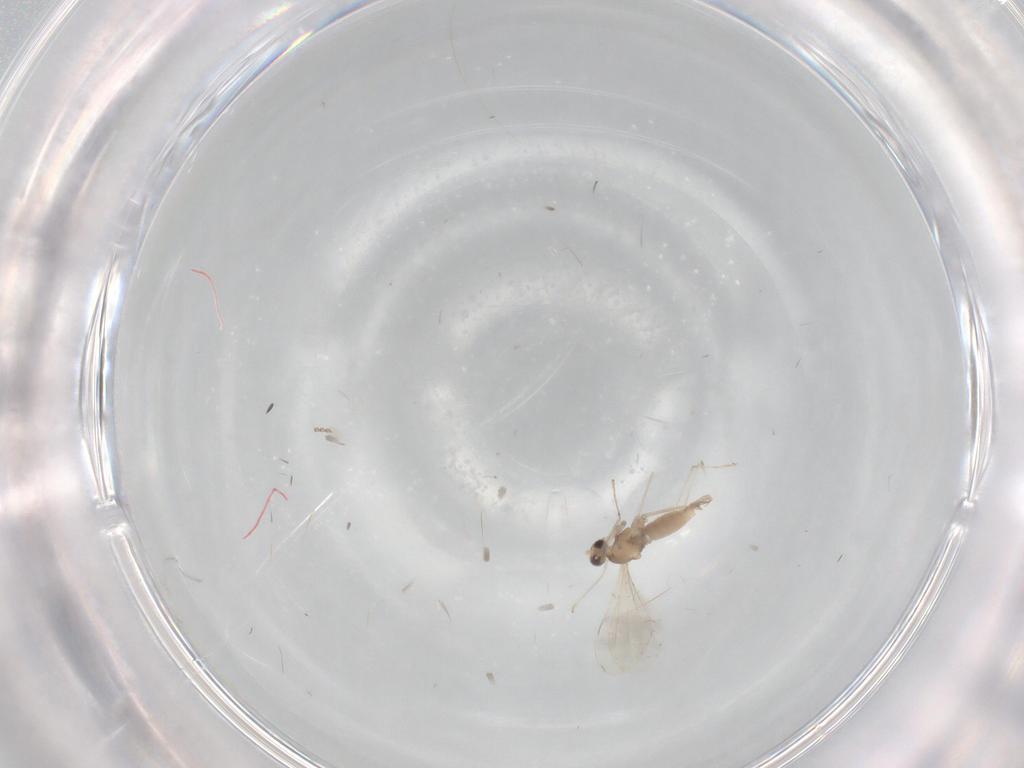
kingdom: Animalia
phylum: Arthropoda
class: Insecta
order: Diptera
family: Cecidomyiidae
